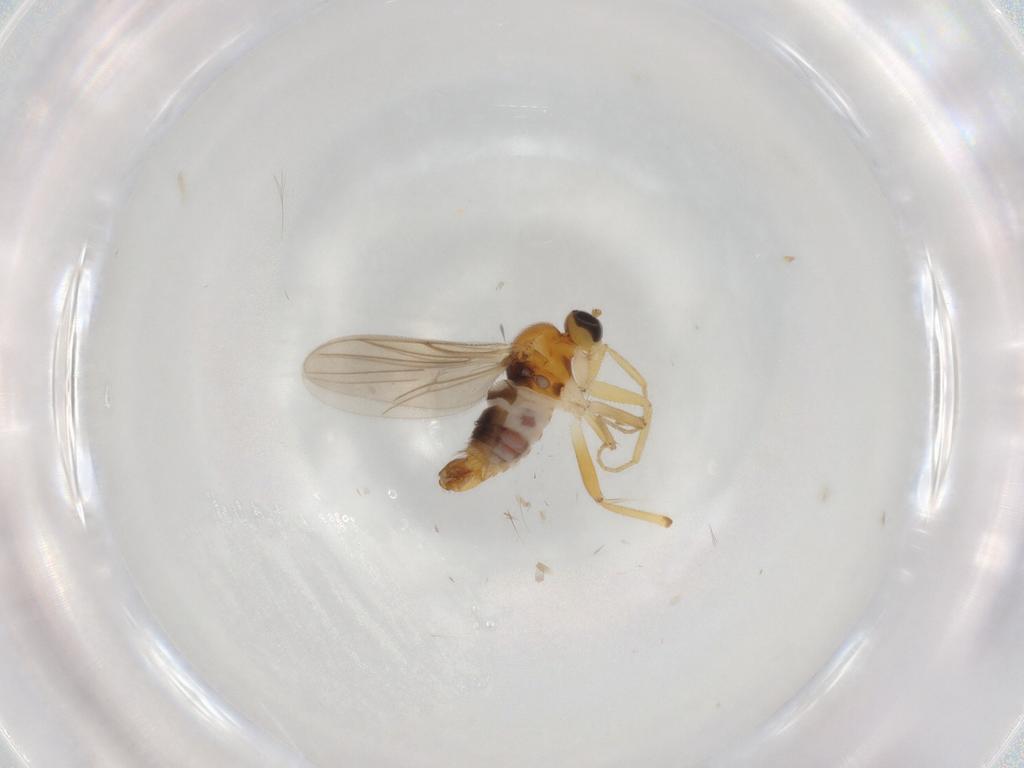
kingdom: Animalia
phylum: Arthropoda
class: Insecta
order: Diptera
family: Hybotidae
